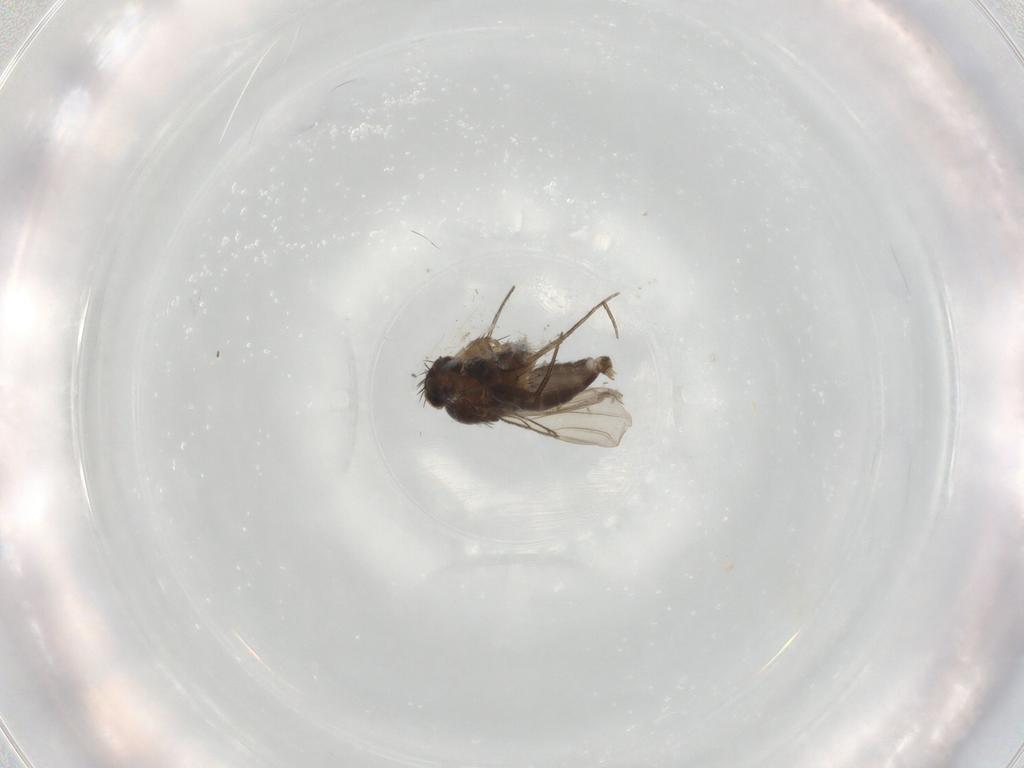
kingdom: Animalia
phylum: Arthropoda
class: Insecta
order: Diptera
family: Phoridae
